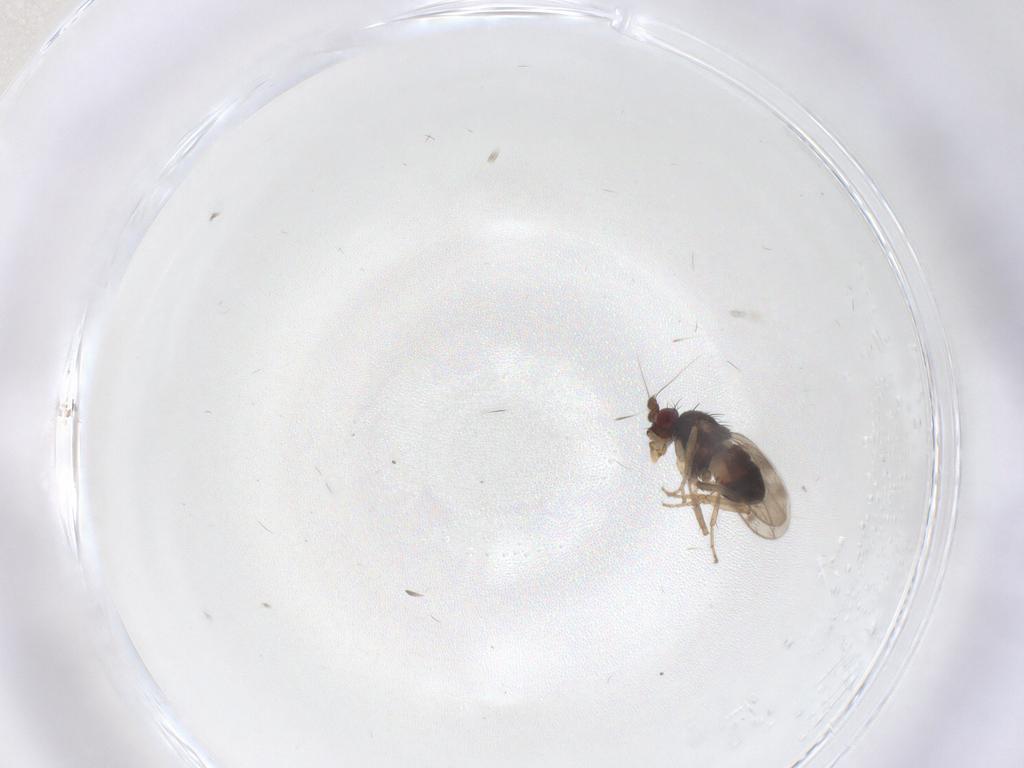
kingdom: Animalia
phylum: Arthropoda
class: Insecta
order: Diptera
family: Sphaeroceridae
